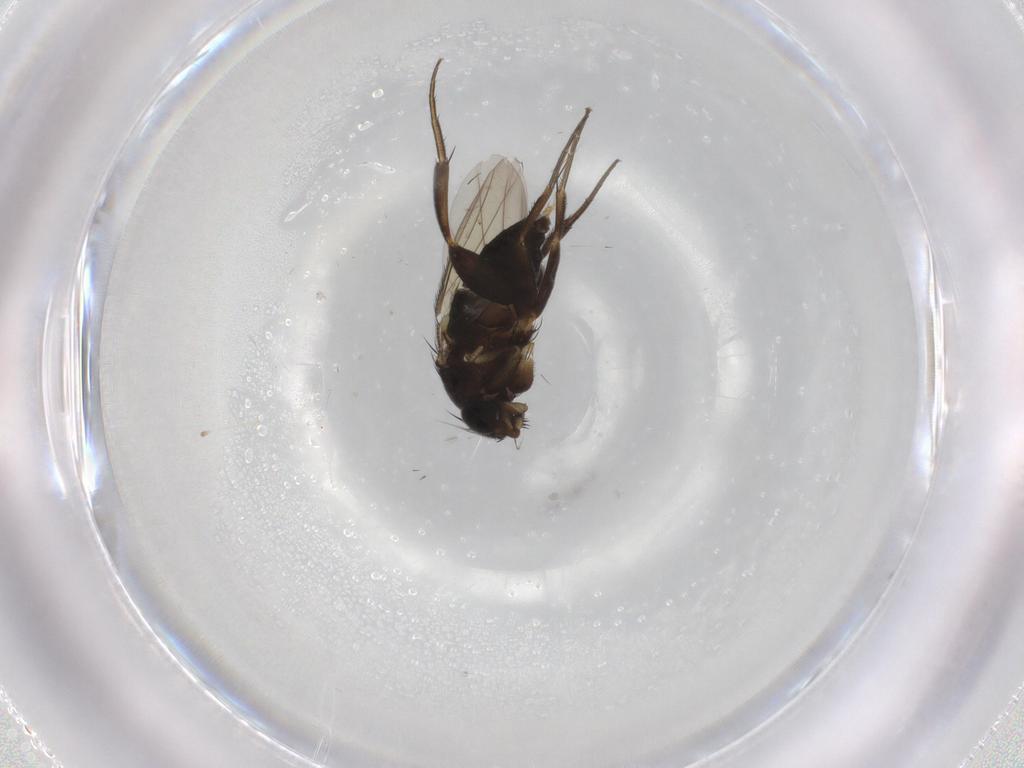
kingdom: Animalia
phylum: Arthropoda
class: Insecta
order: Diptera
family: Phoridae
